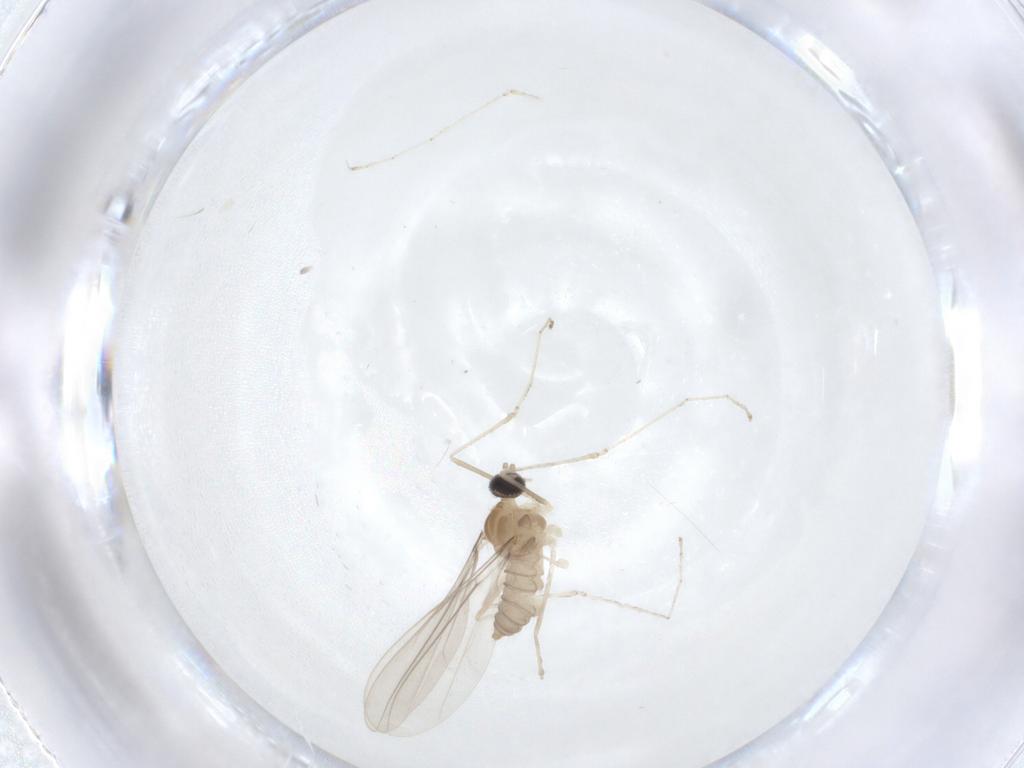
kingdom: Animalia
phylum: Arthropoda
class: Insecta
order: Diptera
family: Cecidomyiidae
